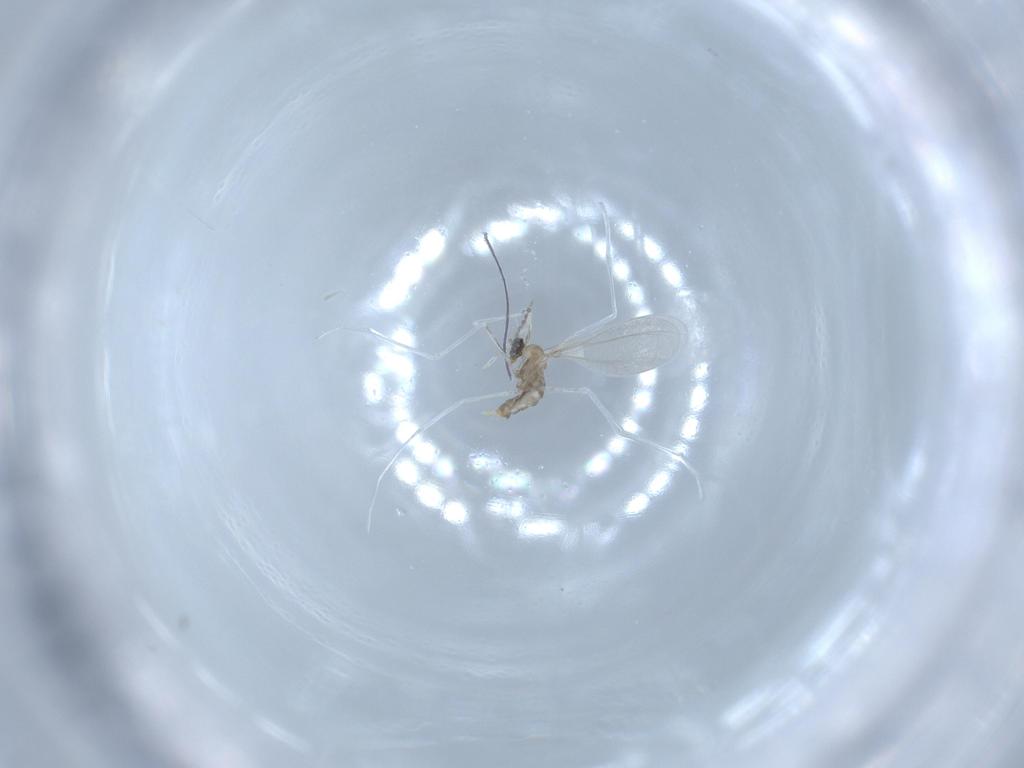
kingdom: Animalia
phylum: Arthropoda
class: Insecta
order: Diptera
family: Cecidomyiidae
